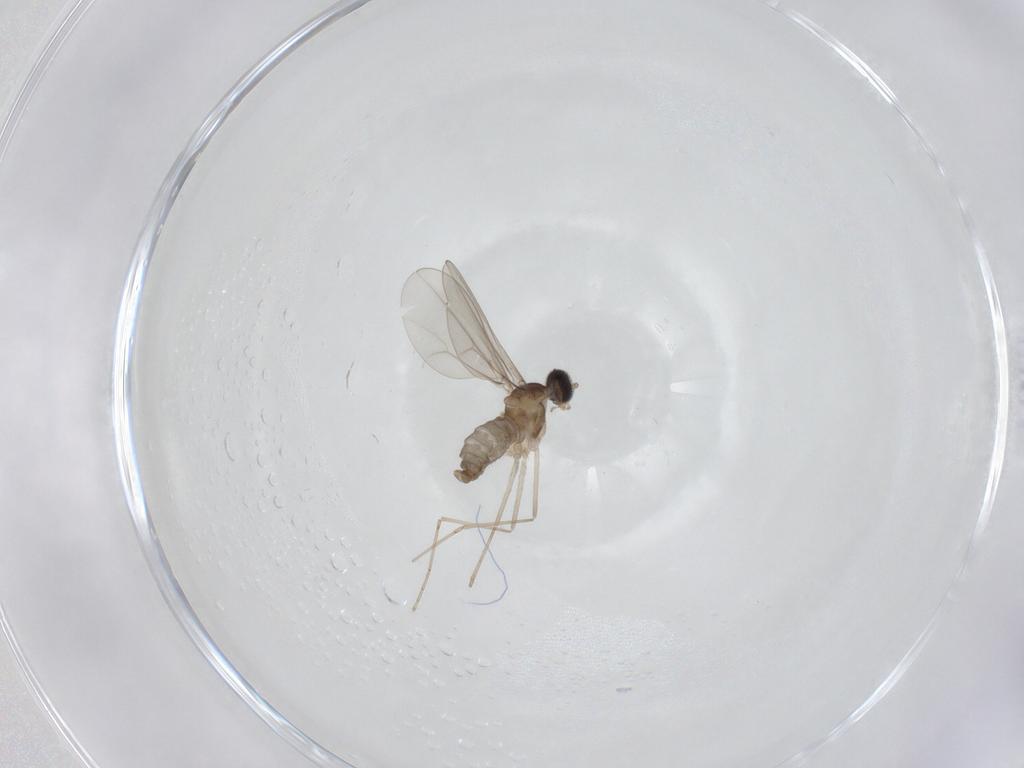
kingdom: Animalia
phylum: Arthropoda
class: Insecta
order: Diptera
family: Cecidomyiidae
